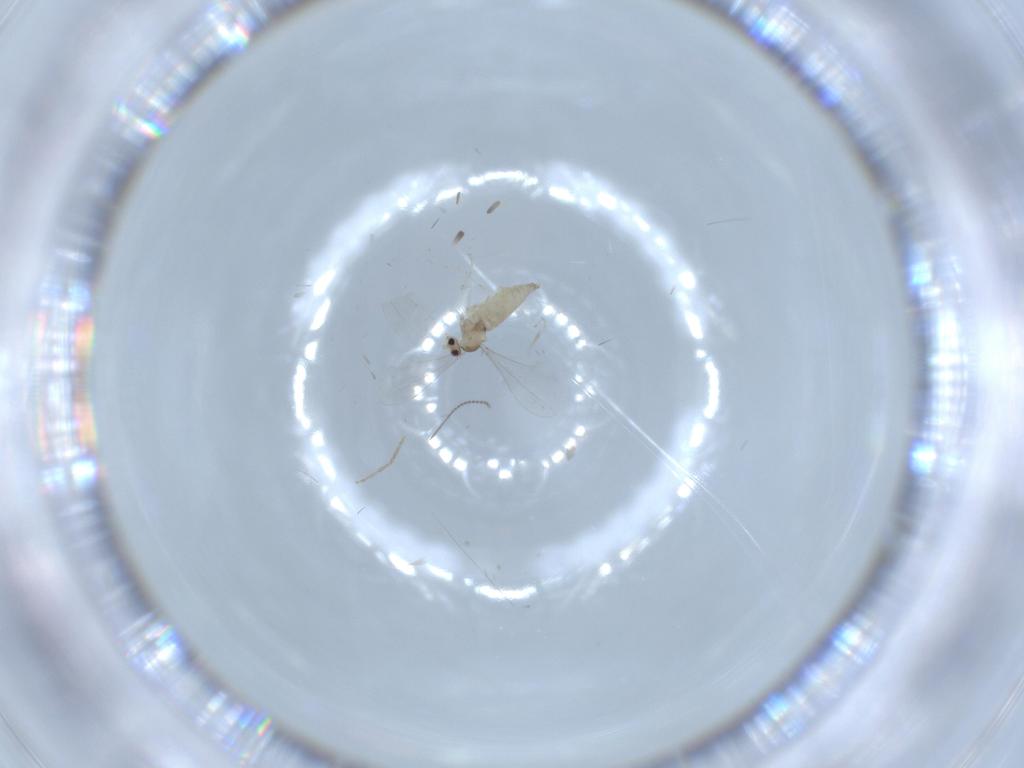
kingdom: Animalia
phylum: Arthropoda
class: Insecta
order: Diptera
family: Cecidomyiidae
